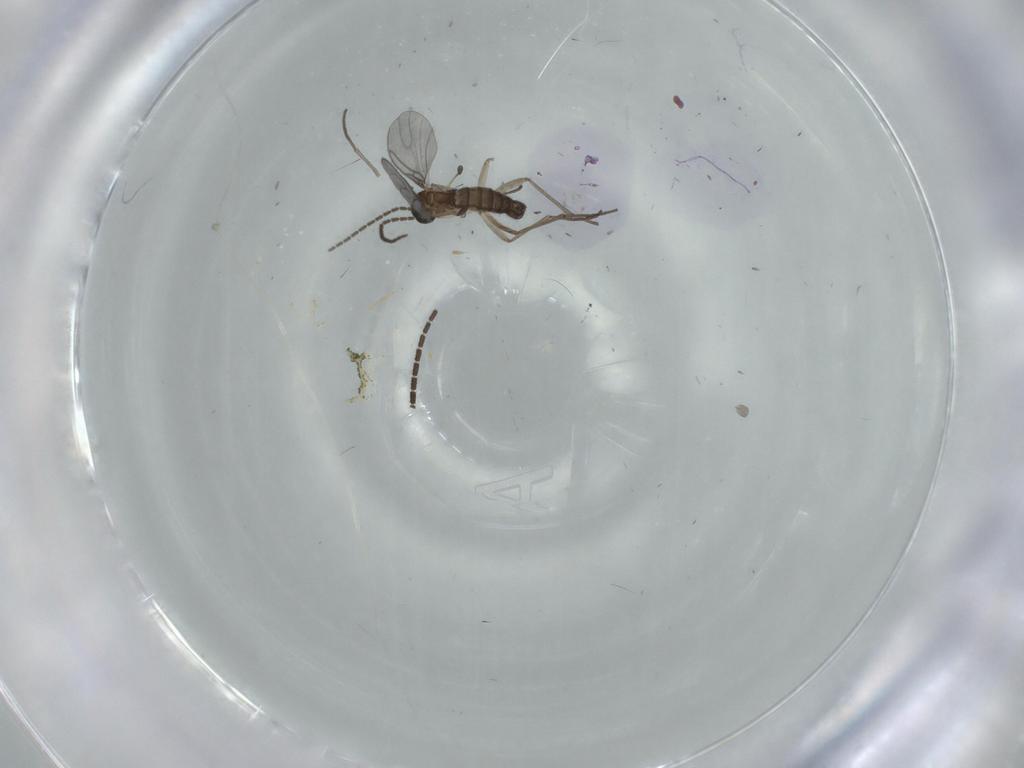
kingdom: Animalia
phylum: Arthropoda
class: Insecta
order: Diptera
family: Sciaridae
